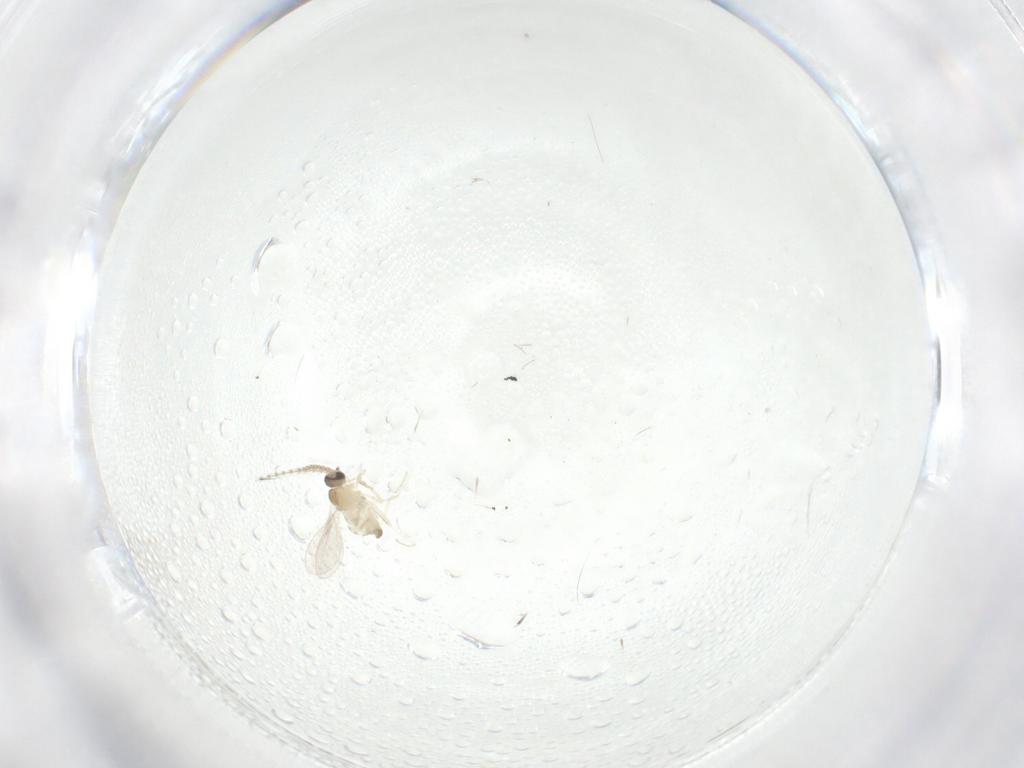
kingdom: Animalia
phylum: Arthropoda
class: Insecta
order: Diptera
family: Cecidomyiidae
